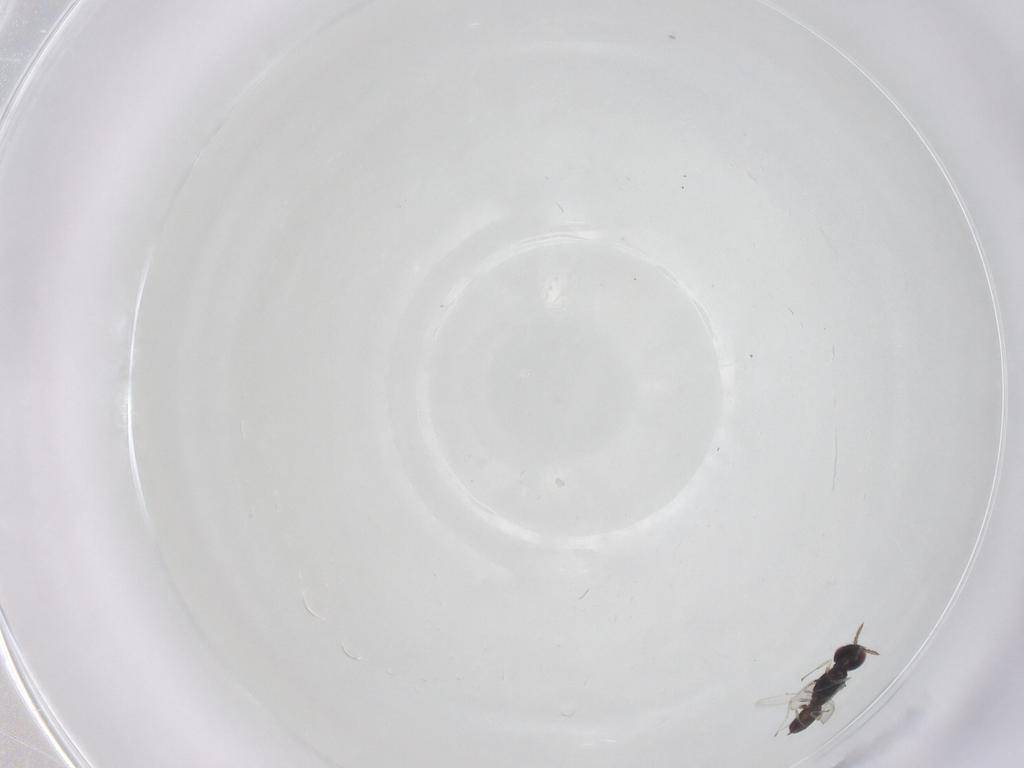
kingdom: Animalia
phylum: Arthropoda
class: Insecta
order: Hymenoptera
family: Eulophidae
